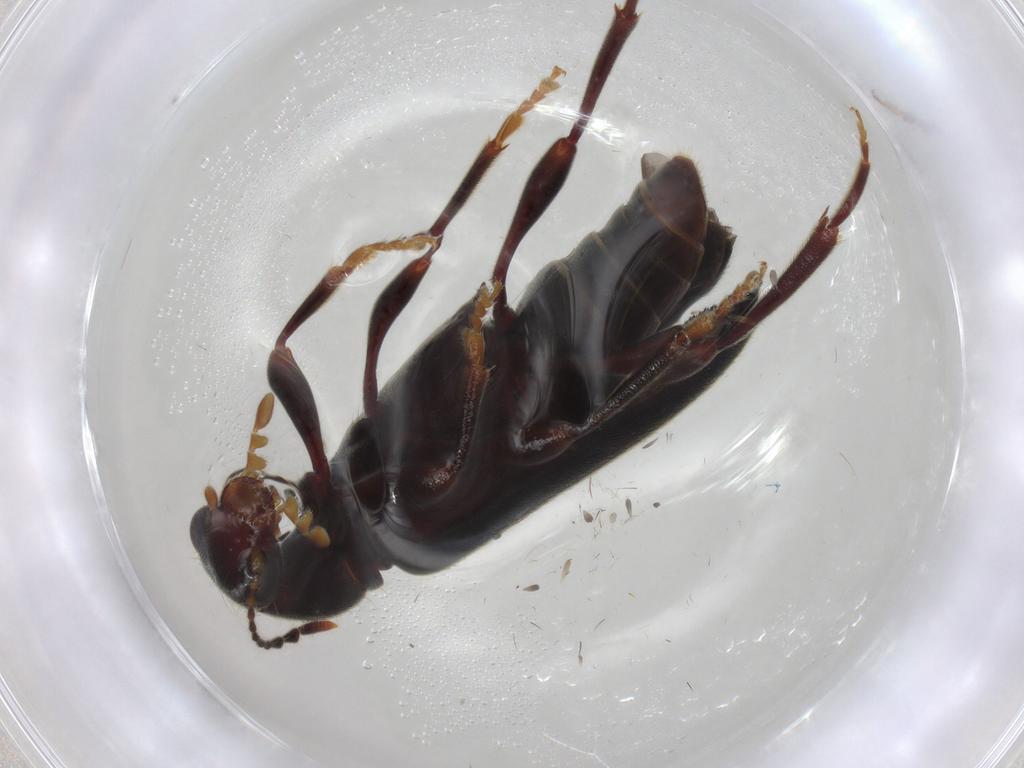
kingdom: Animalia
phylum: Arthropoda
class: Insecta
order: Coleoptera
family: Anthicidae
